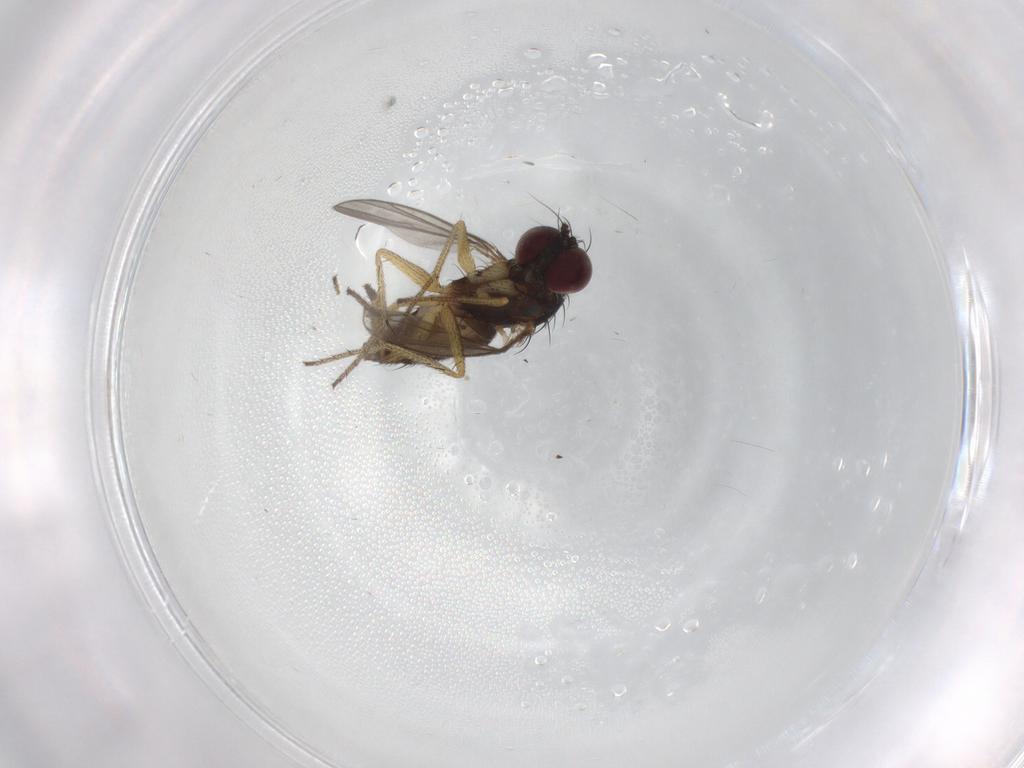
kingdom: Animalia
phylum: Arthropoda
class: Insecta
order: Diptera
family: Dolichopodidae
